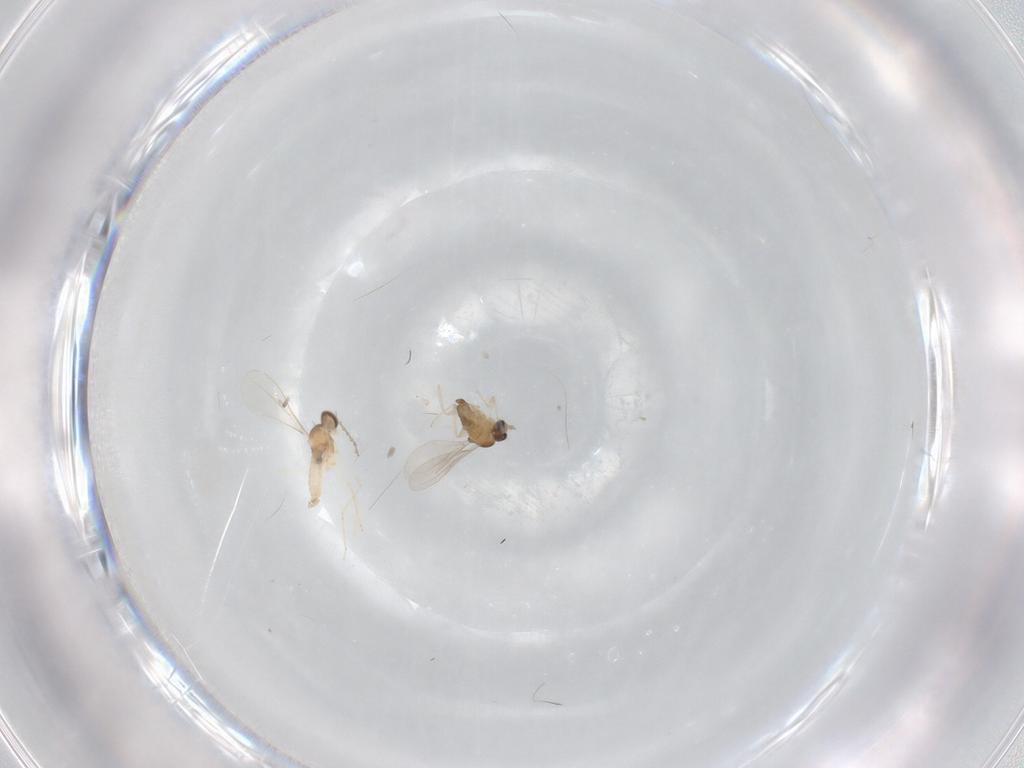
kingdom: Animalia
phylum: Arthropoda
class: Insecta
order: Diptera
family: Cecidomyiidae
